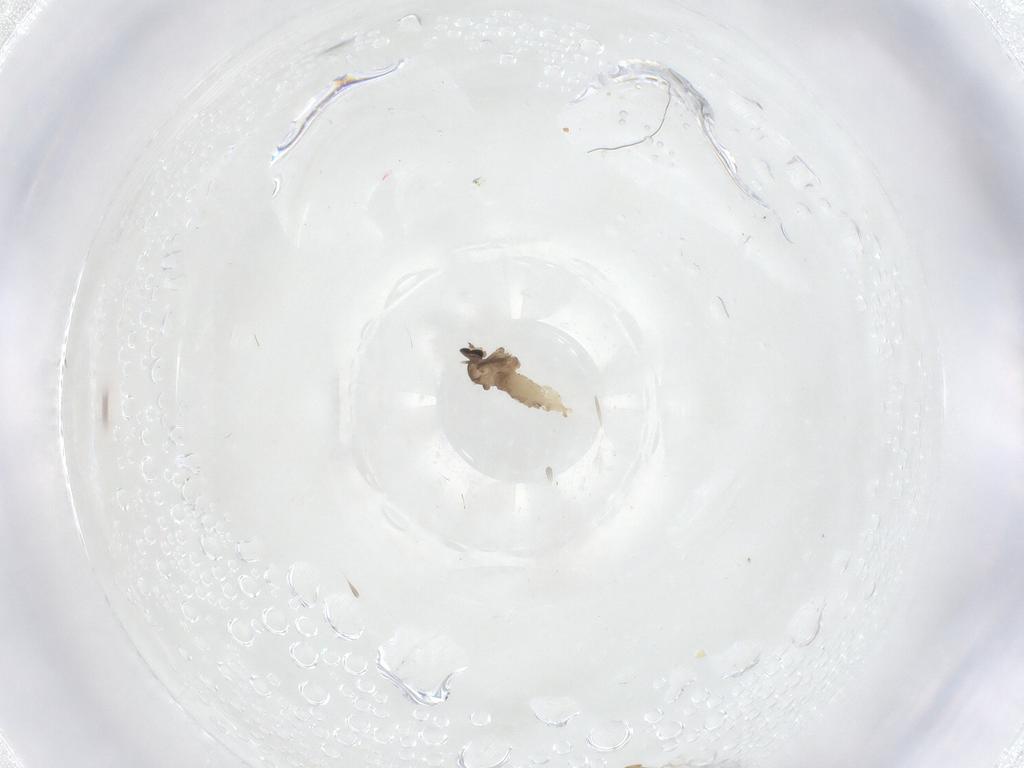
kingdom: Animalia
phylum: Arthropoda
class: Insecta
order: Diptera
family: Cecidomyiidae
